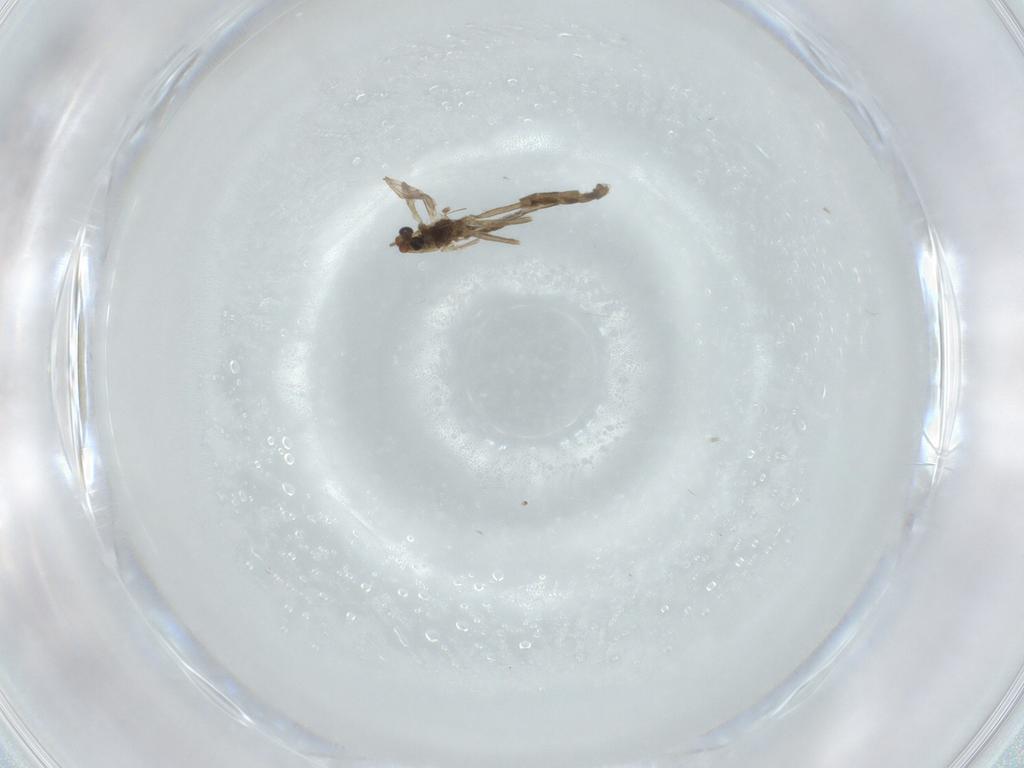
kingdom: Animalia
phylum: Arthropoda
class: Insecta
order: Diptera
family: Chironomidae
